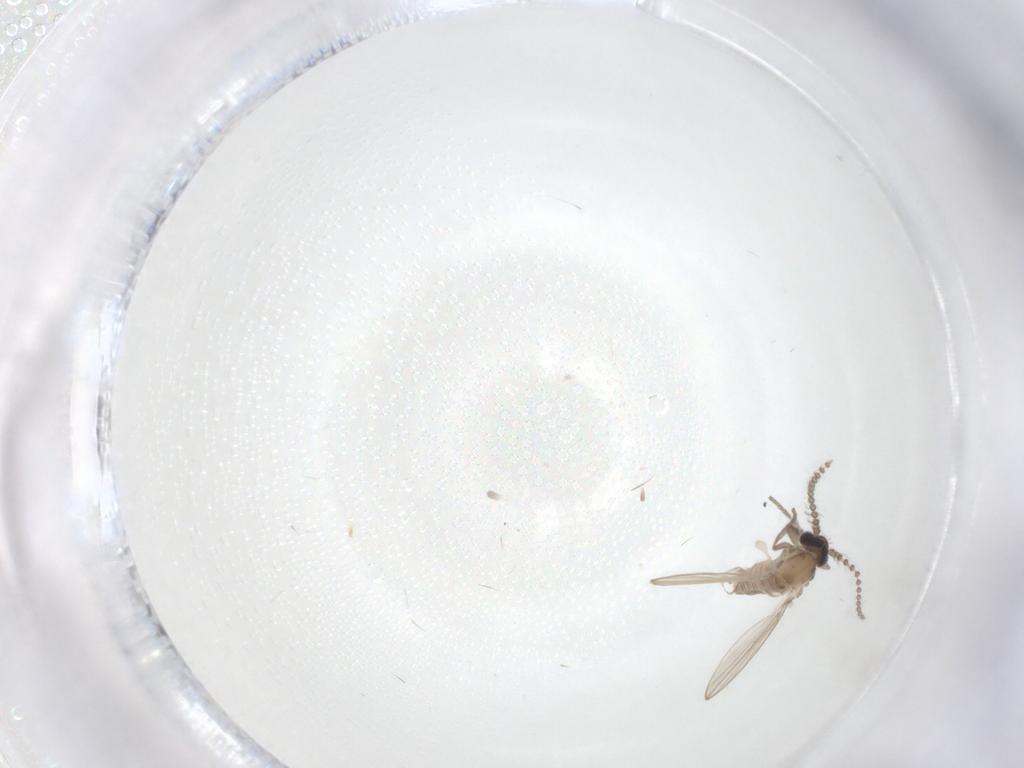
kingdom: Animalia
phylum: Arthropoda
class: Insecta
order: Diptera
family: Psychodidae
